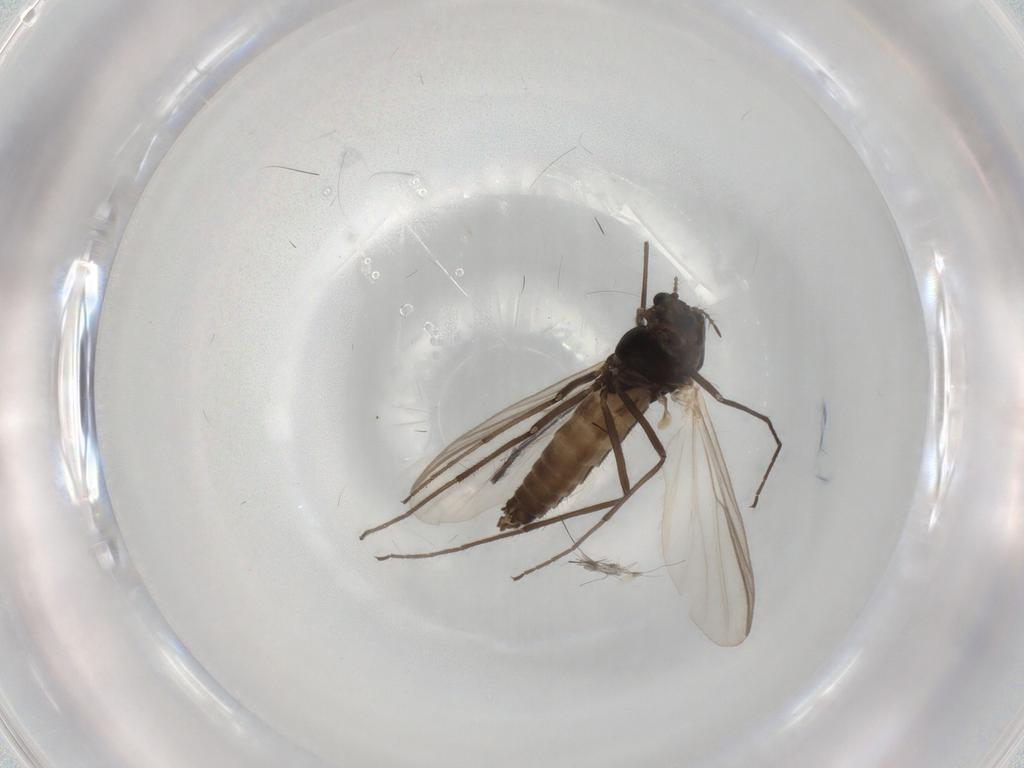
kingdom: Animalia
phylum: Arthropoda
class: Insecta
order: Diptera
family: Chironomidae
